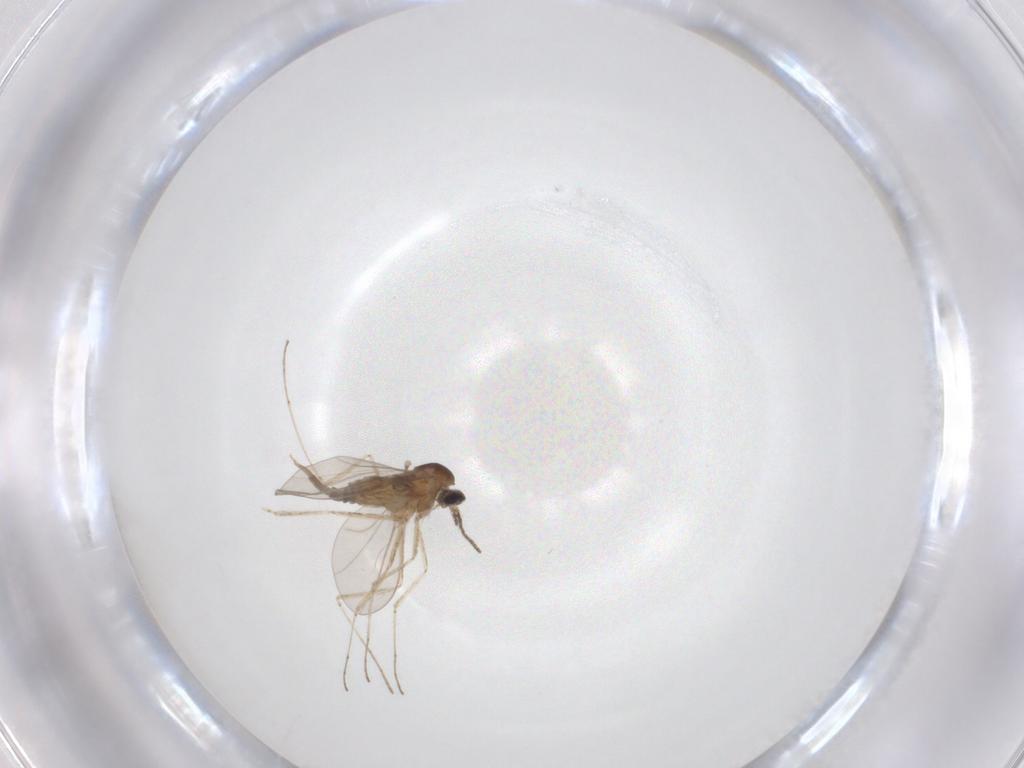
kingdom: Animalia
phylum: Arthropoda
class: Insecta
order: Diptera
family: Cecidomyiidae
